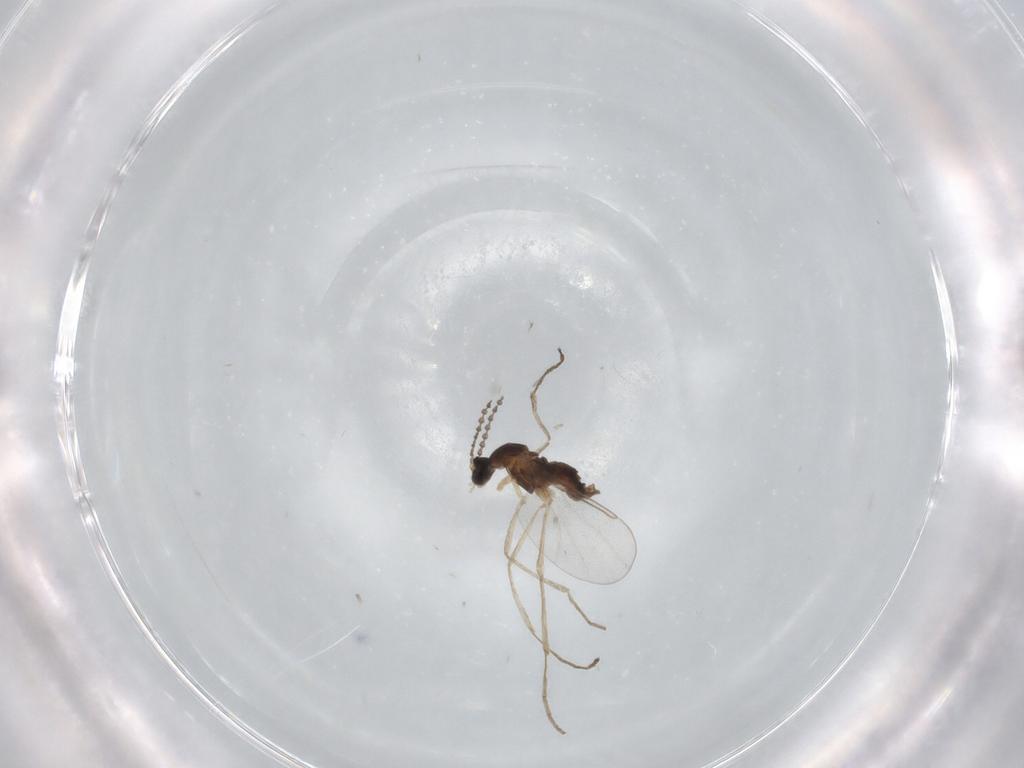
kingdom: Animalia
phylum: Arthropoda
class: Insecta
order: Diptera
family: Cecidomyiidae
